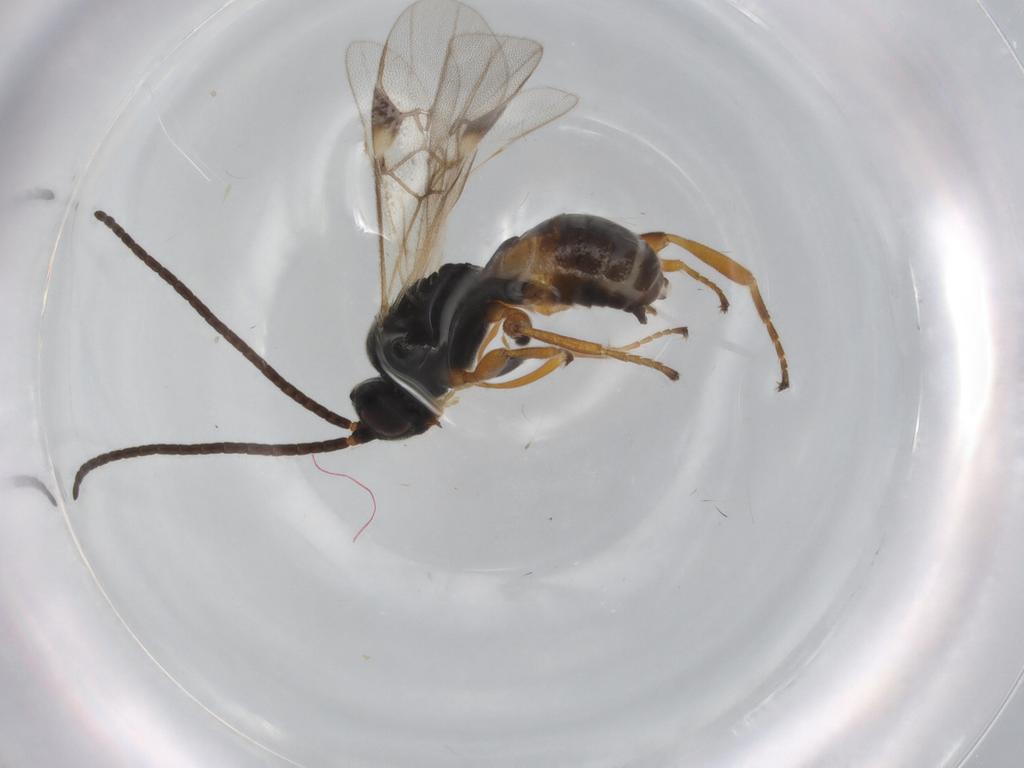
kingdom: Animalia
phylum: Arthropoda
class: Insecta
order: Hymenoptera
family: Braconidae
